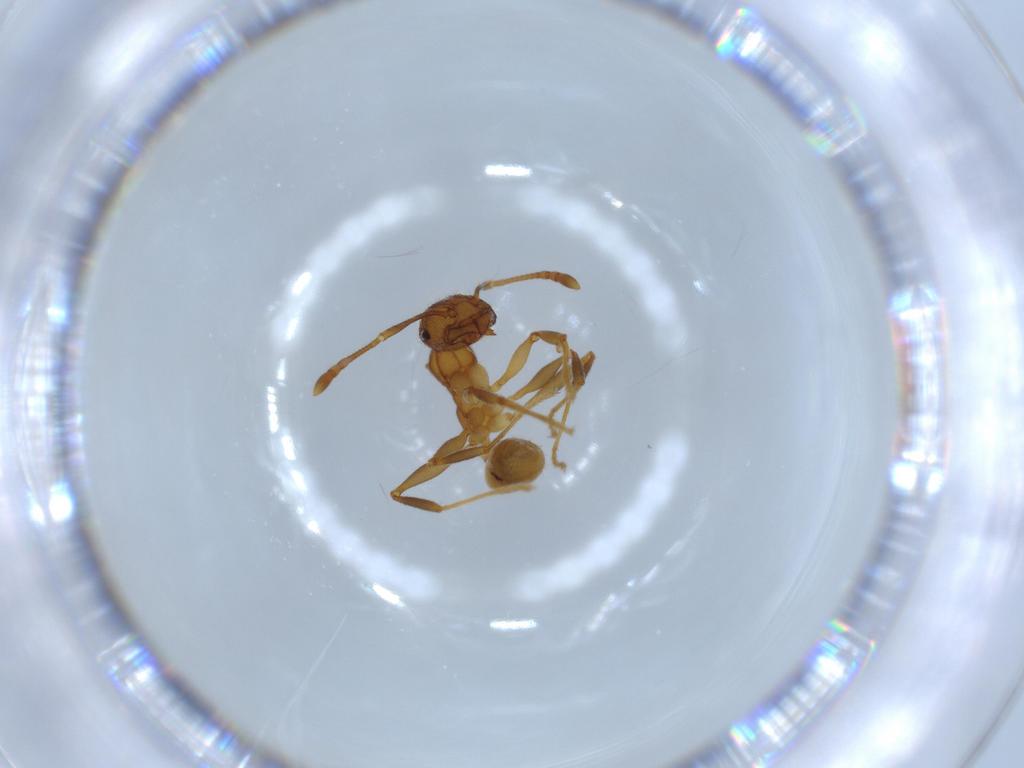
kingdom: Animalia
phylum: Arthropoda
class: Insecta
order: Hymenoptera
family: Formicidae
